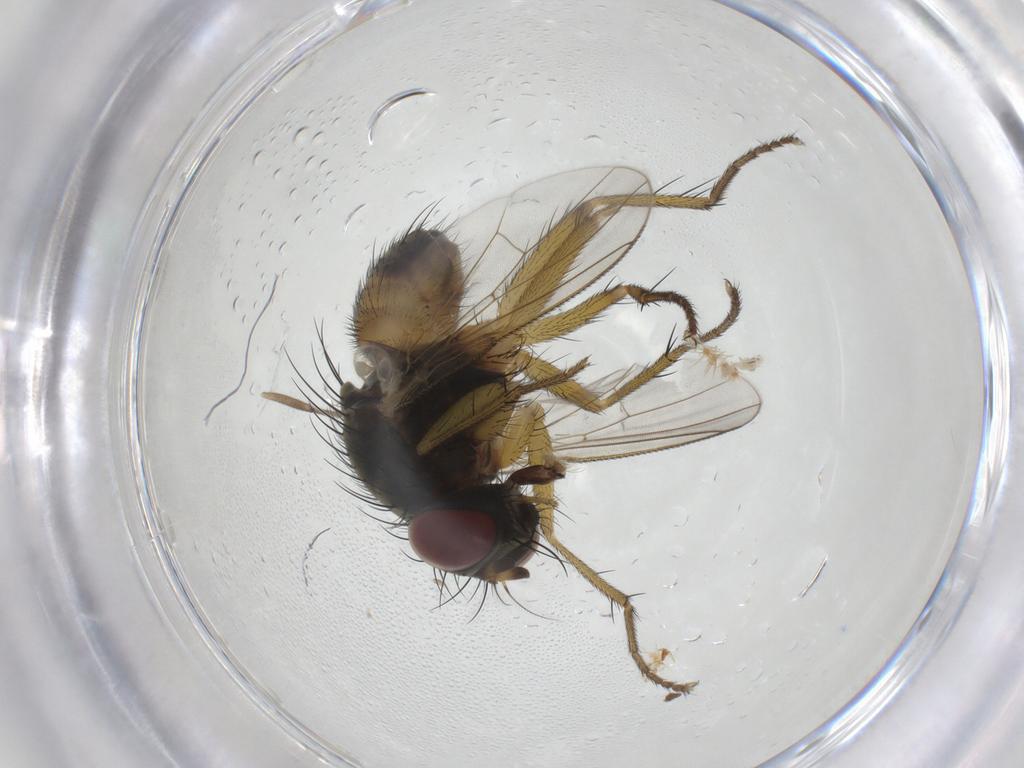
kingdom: Animalia
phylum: Arthropoda
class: Insecta
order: Diptera
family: Muscidae
